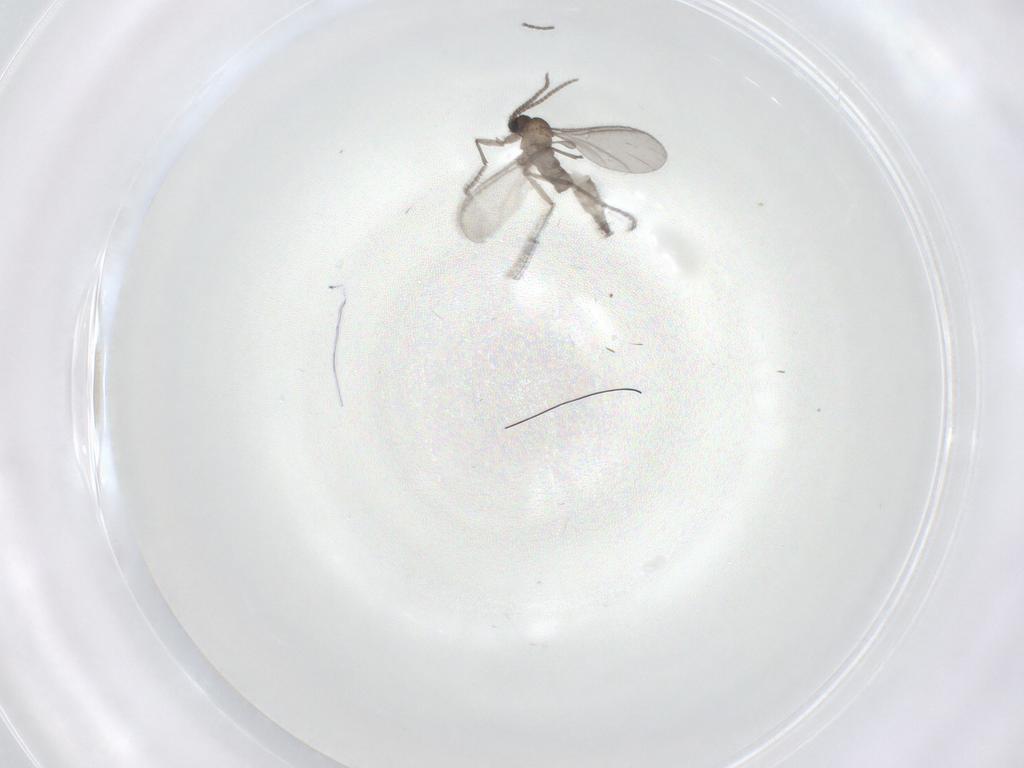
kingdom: Animalia
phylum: Arthropoda
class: Insecta
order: Diptera
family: Sciaridae
